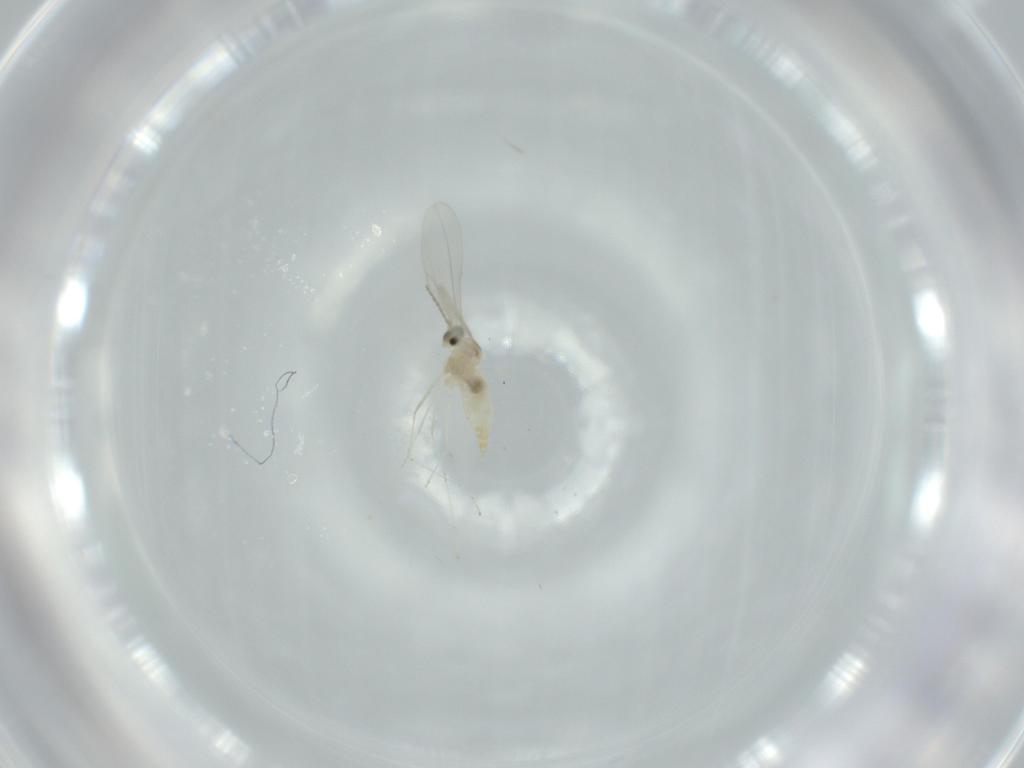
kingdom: Animalia
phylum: Arthropoda
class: Insecta
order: Diptera
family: Cecidomyiidae
